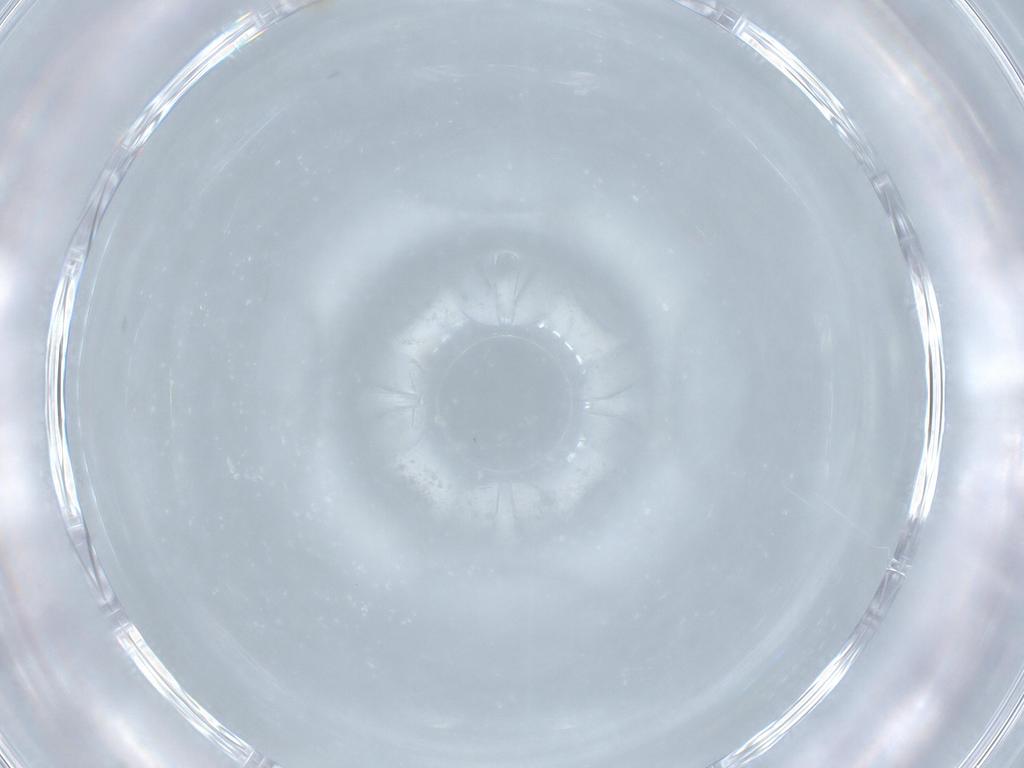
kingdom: Animalia
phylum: Arthropoda
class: Insecta
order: Hemiptera
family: Aleyrodidae
